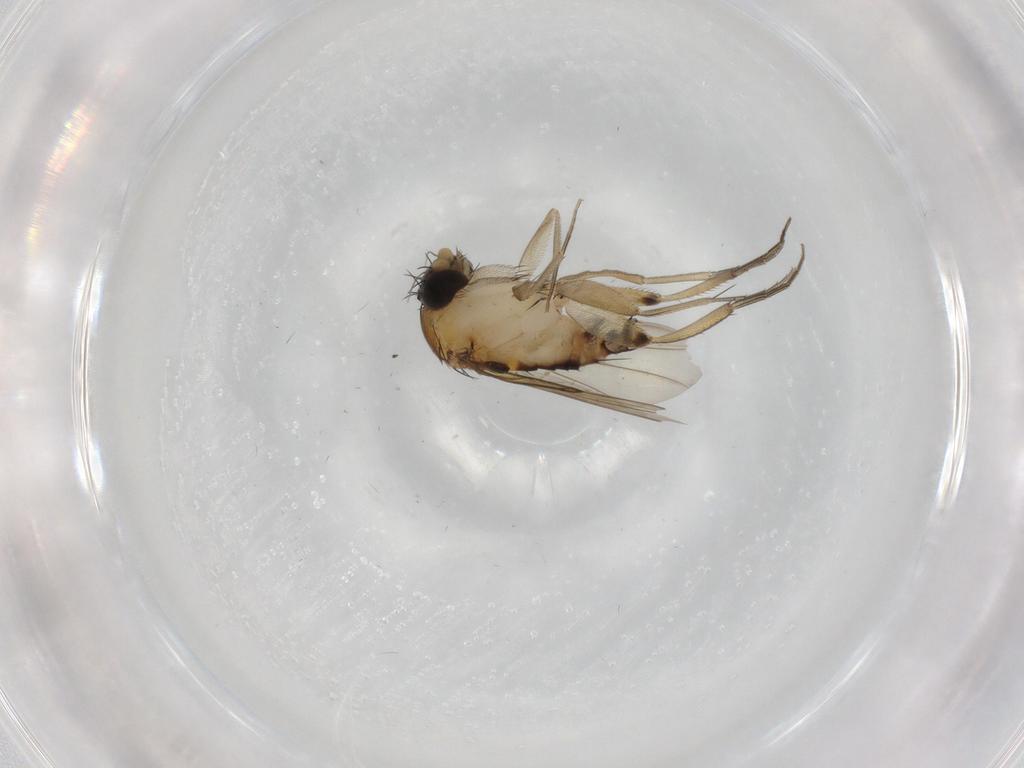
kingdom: Animalia
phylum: Arthropoda
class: Insecta
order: Diptera
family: Phoridae
